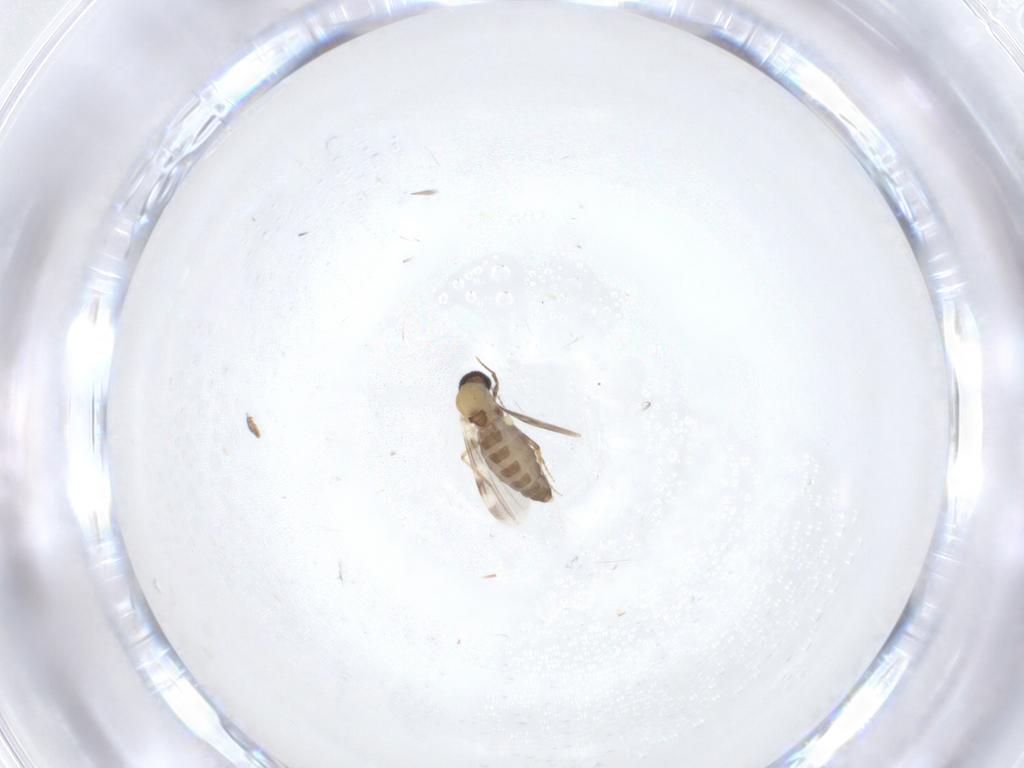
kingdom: Animalia
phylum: Arthropoda
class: Insecta
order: Diptera
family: Ceratopogonidae
